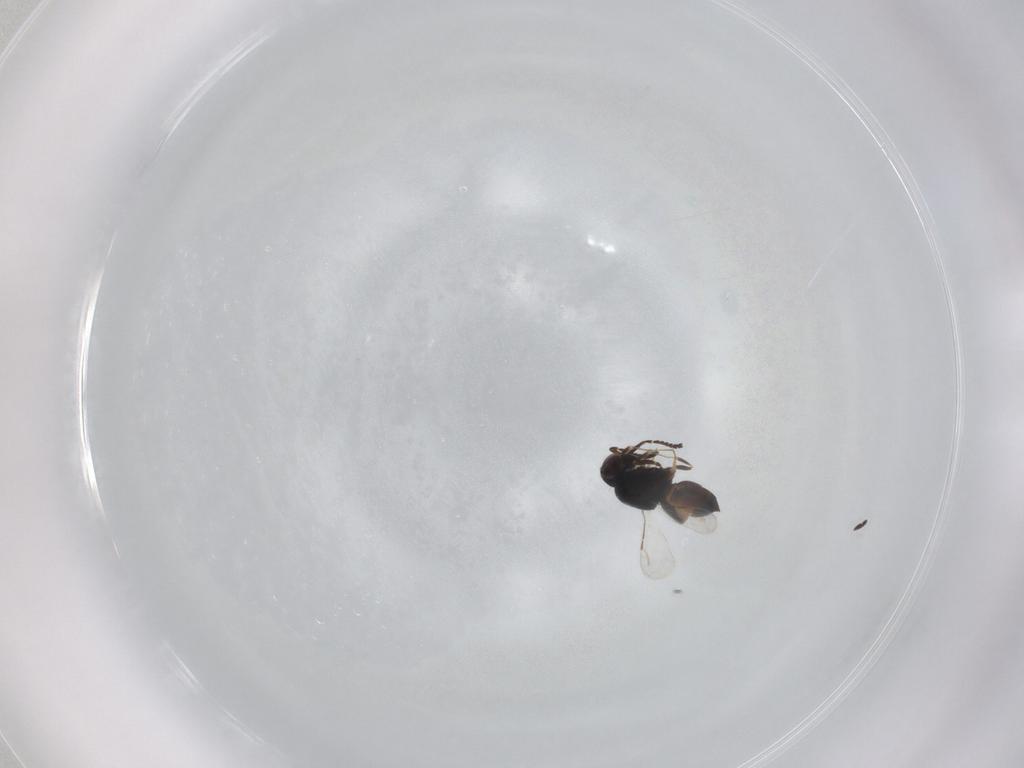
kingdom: Animalia
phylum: Arthropoda
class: Insecta
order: Hymenoptera
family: Ceraphronidae
